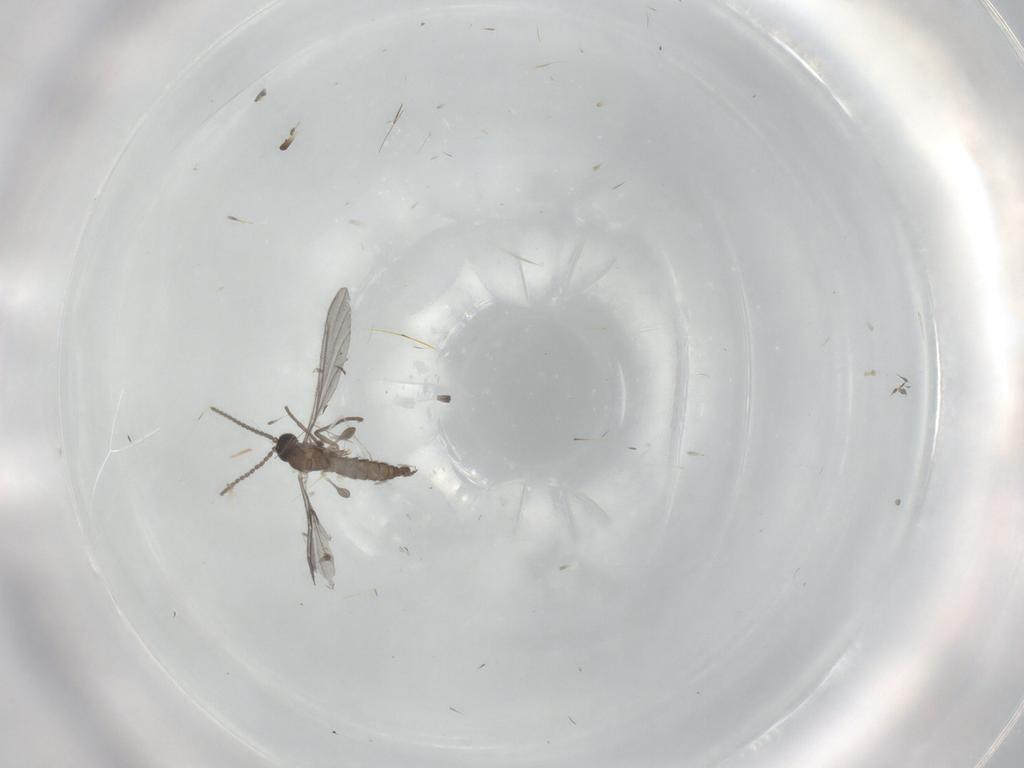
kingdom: Animalia
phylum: Arthropoda
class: Insecta
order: Diptera
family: Sciaridae
